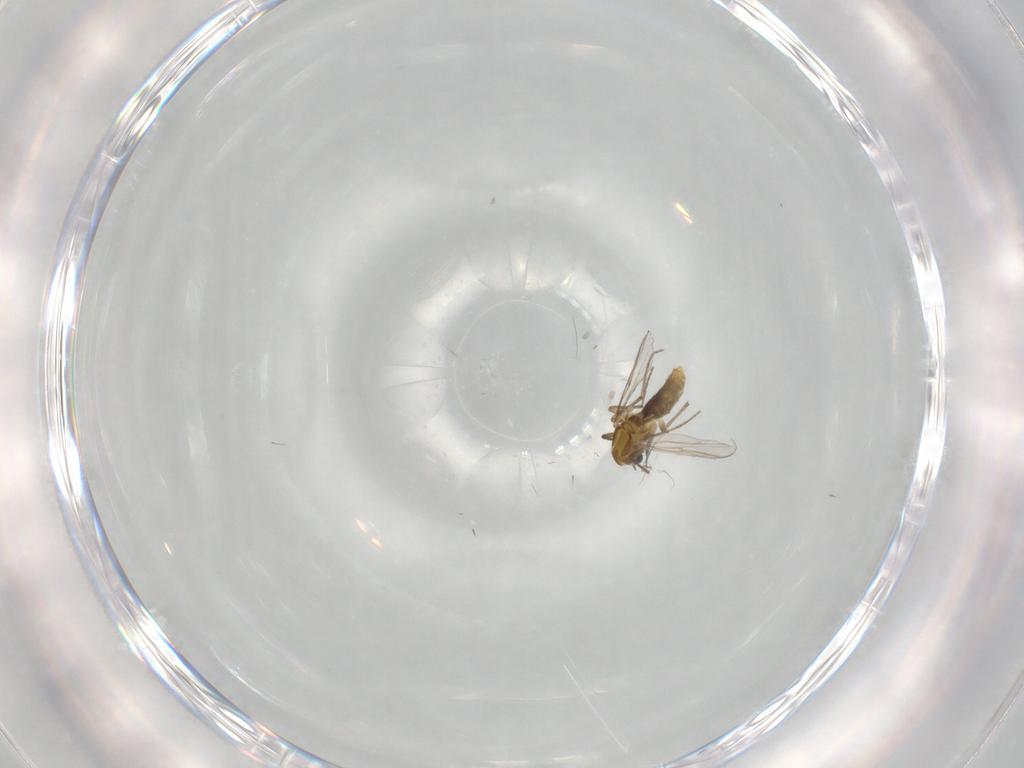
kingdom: Animalia
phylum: Arthropoda
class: Insecta
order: Diptera
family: Chironomidae
